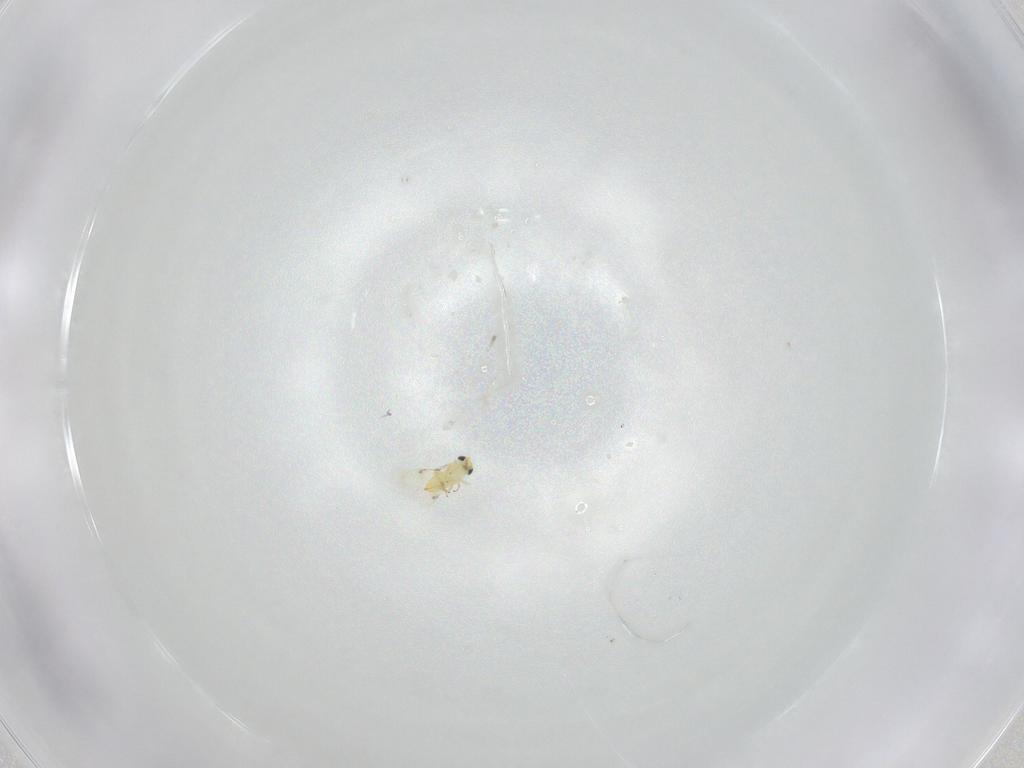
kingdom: Animalia
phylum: Arthropoda
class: Insecta
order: Hymenoptera
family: Trichogrammatidae
